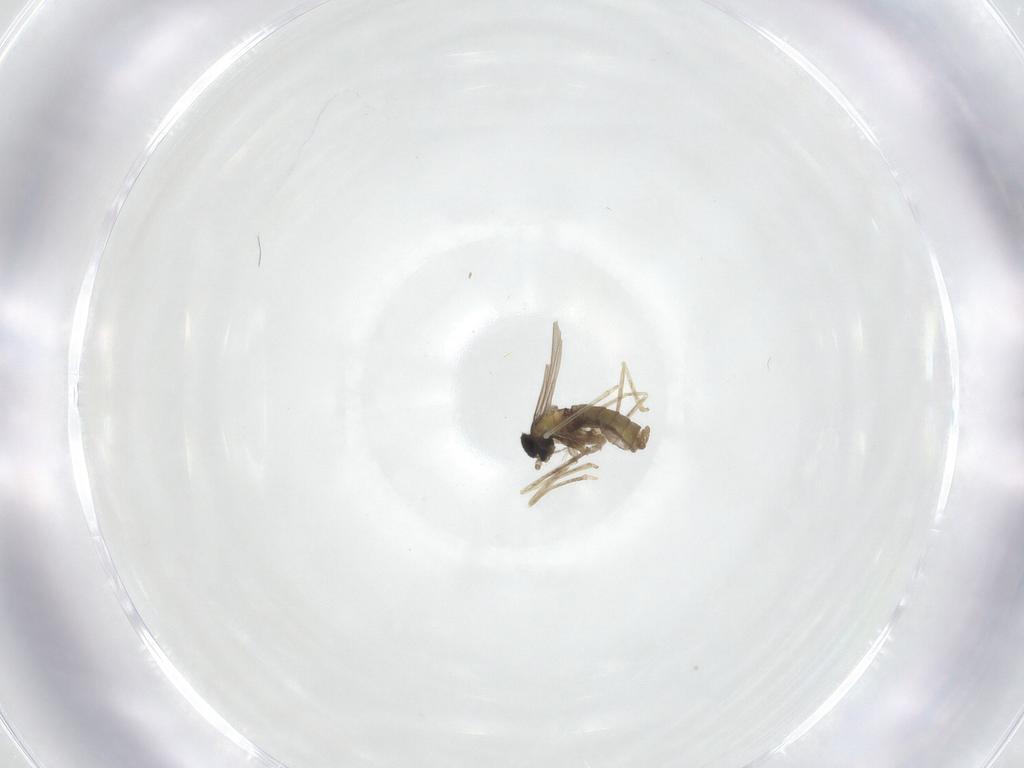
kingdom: Animalia
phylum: Arthropoda
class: Insecta
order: Diptera
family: Cecidomyiidae
